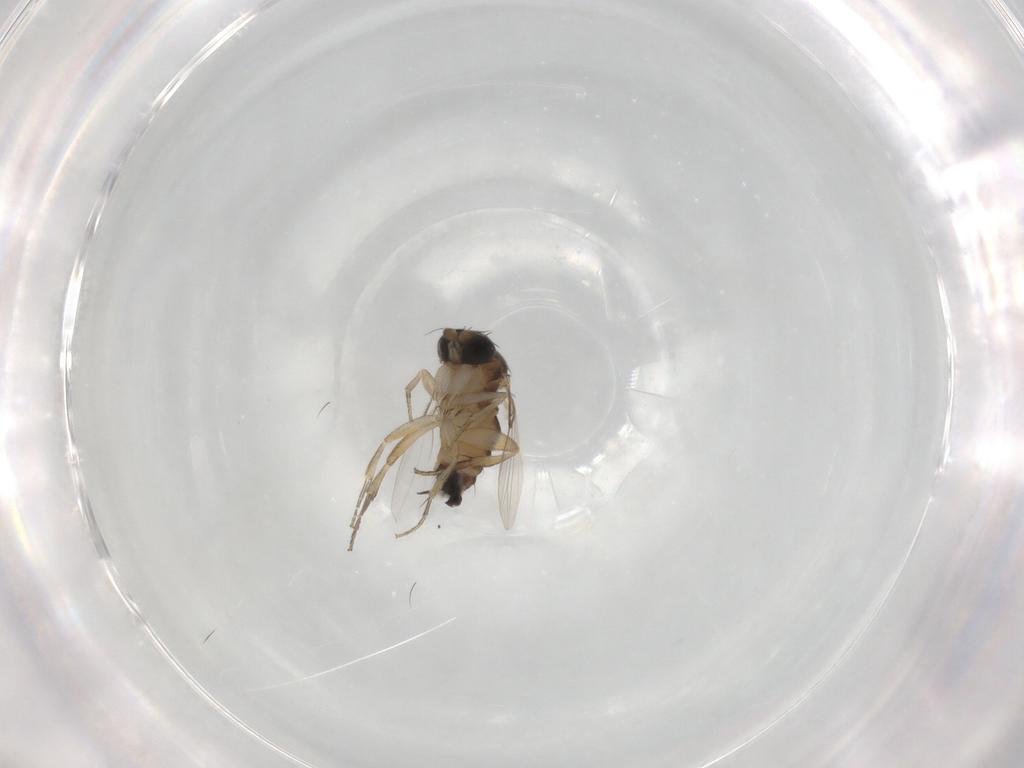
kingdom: Animalia
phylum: Arthropoda
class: Insecta
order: Diptera
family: Phoridae
